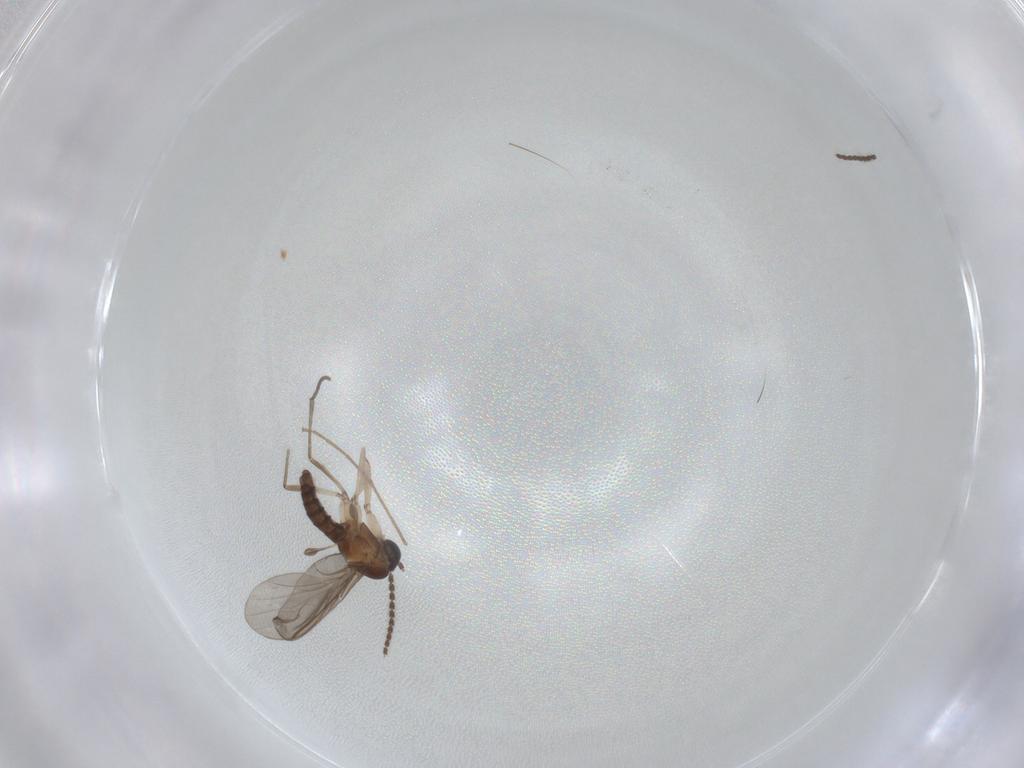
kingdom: Animalia
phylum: Arthropoda
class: Insecta
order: Diptera
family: Sciaridae
